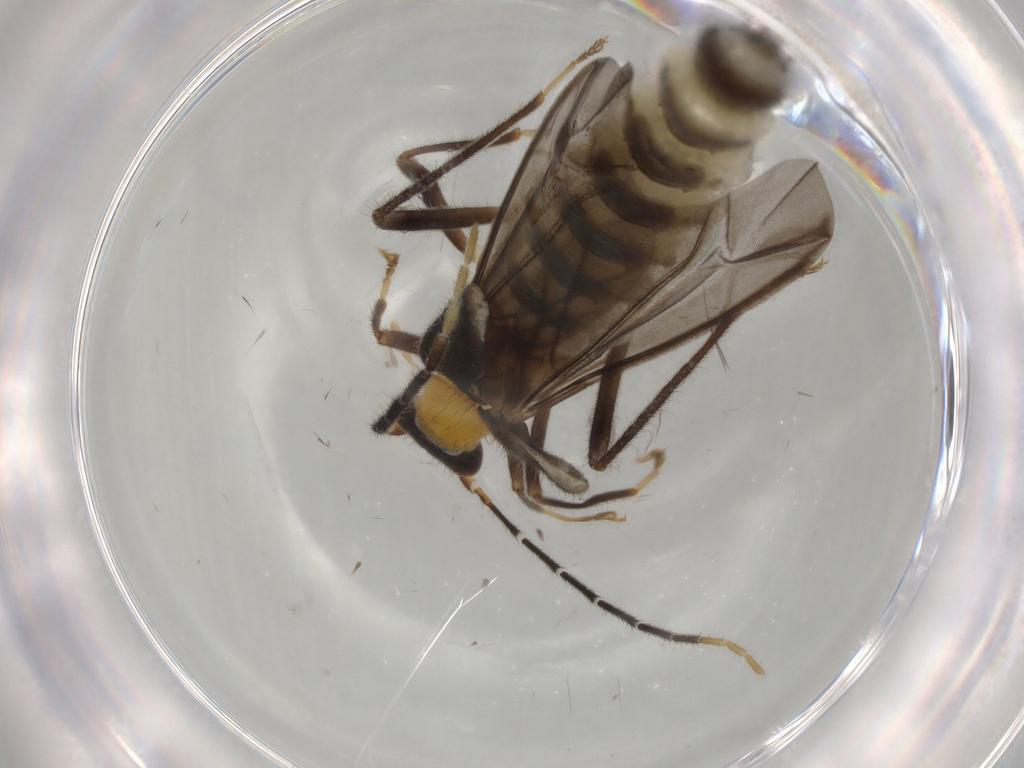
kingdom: Animalia
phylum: Arthropoda
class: Insecta
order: Coleoptera
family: Cantharidae
